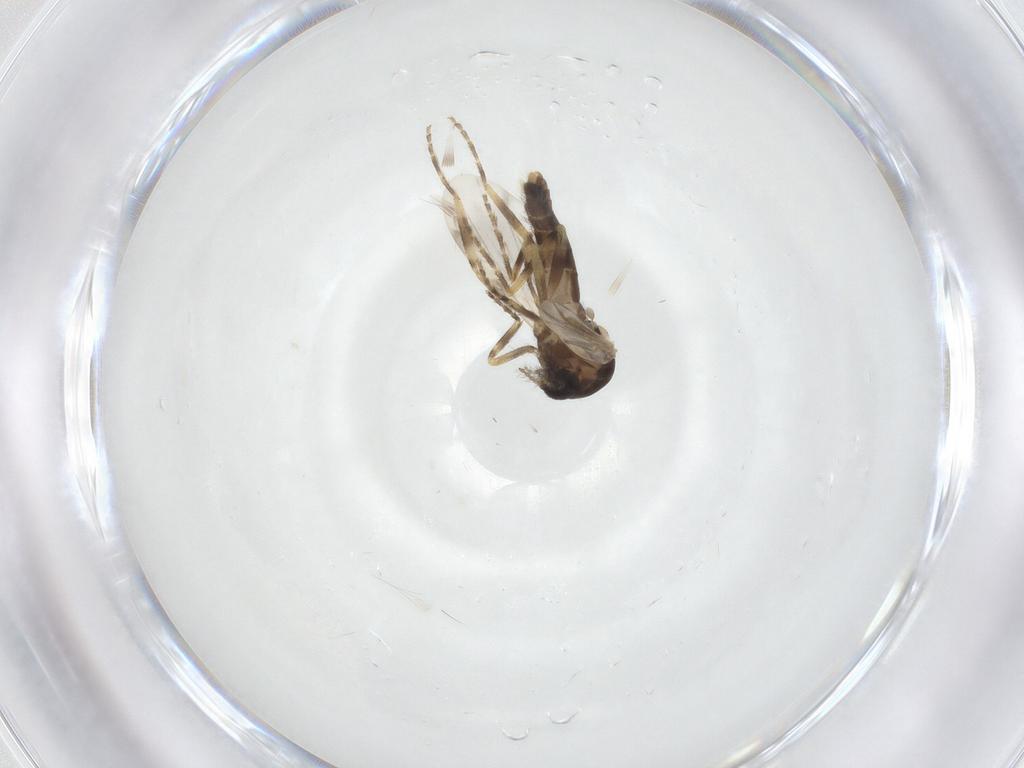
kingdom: Animalia
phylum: Arthropoda
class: Insecta
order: Diptera
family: Ceratopogonidae
